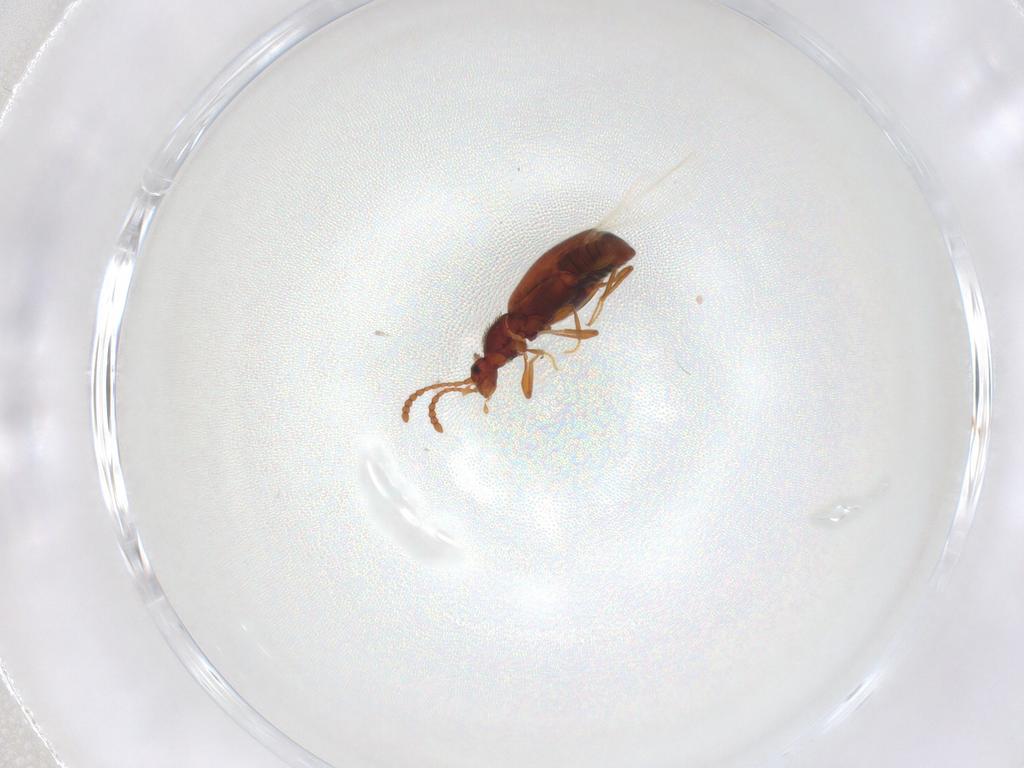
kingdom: Animalia
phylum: Arthropoda
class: Insecta
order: Coleoptera
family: Staphylinidae
